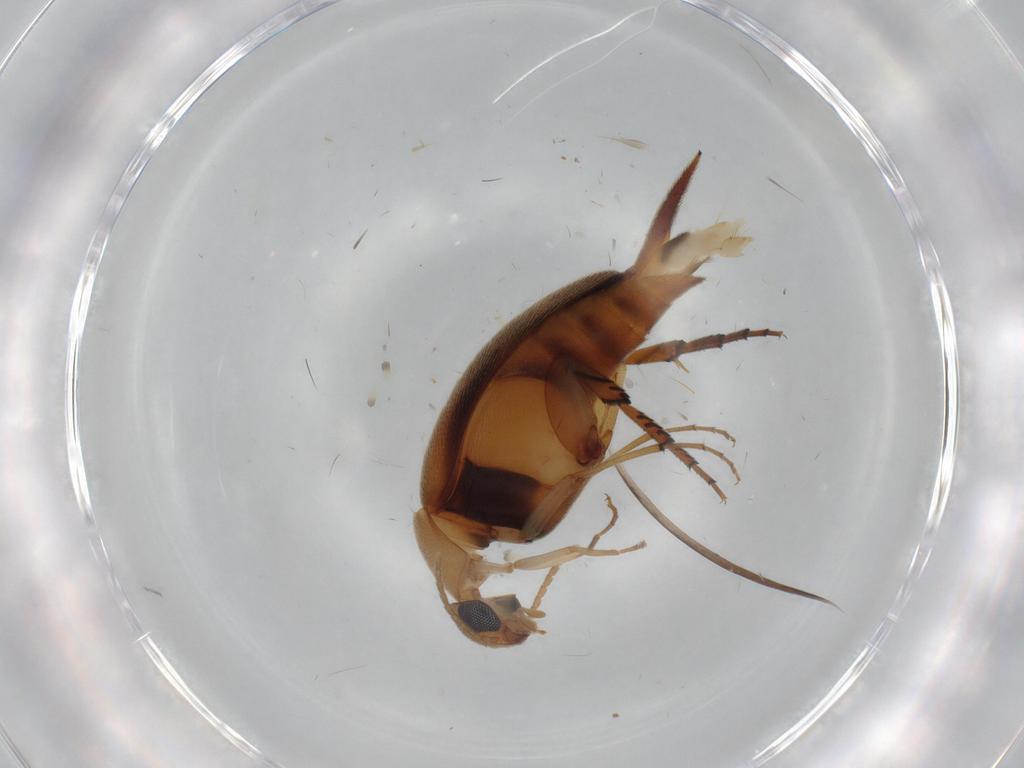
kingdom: Animalia
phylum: Arthropoda
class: Insecta
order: Coleoptera
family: Mordellidae
